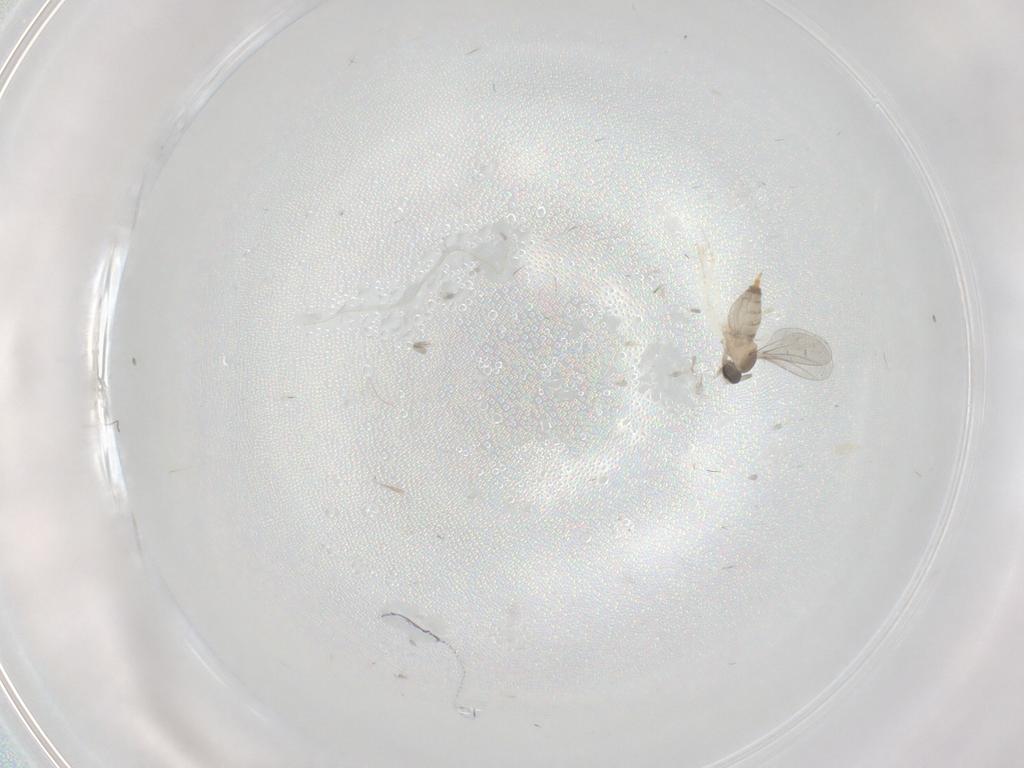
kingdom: Animalia
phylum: Arthropoda
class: Insecta
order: Diptera
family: Cecidomyiidae
